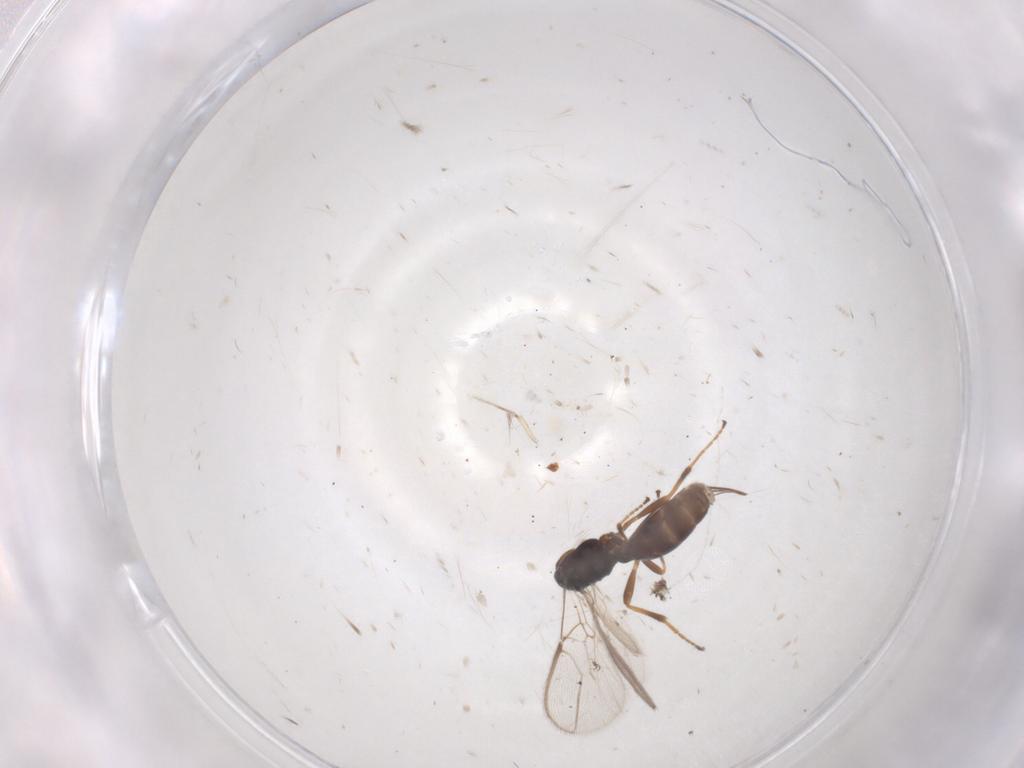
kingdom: Animalia
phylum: Arthropoda
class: Insecta
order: Hymenoptera
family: Braconidae
